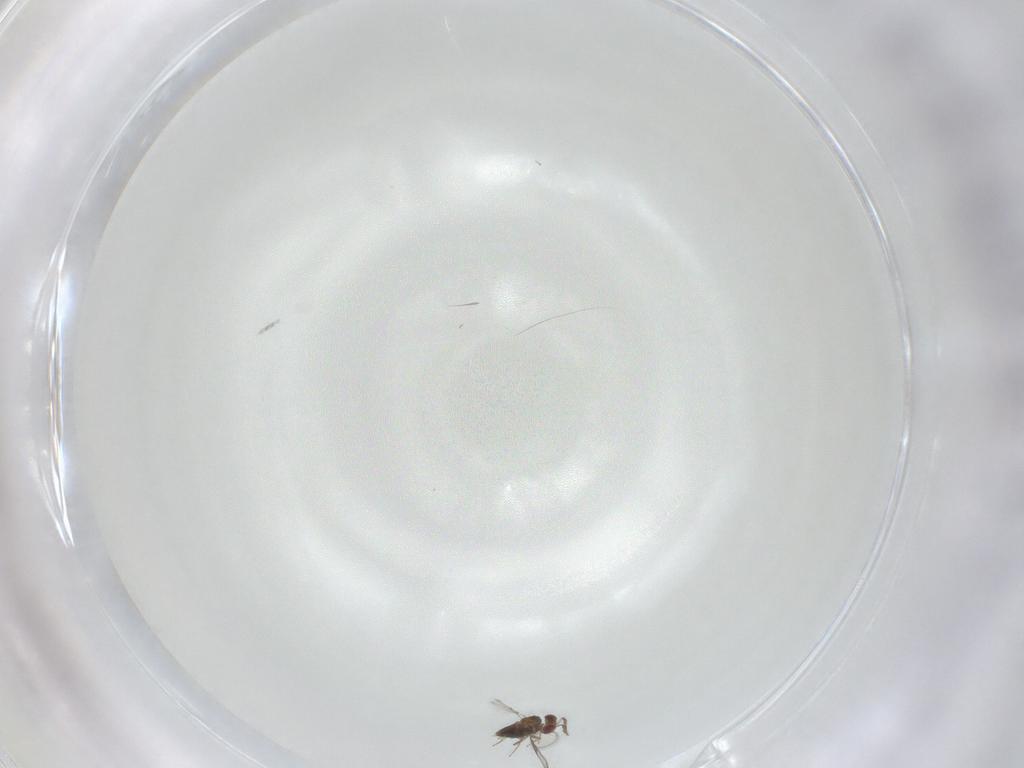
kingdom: Animalia
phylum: Arthropoda
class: Insecta
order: Hymenoptera
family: Trichogrammatidae
